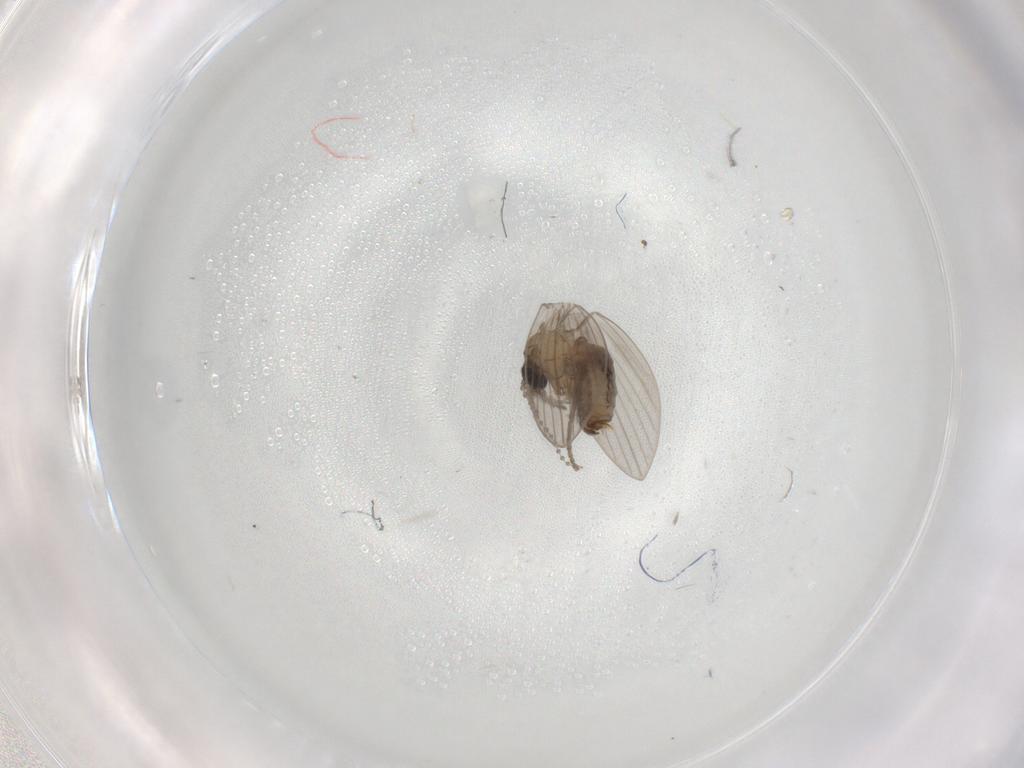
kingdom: Animalia
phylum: Arthropoda
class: Insecta
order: Diptera
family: Psychodidae
